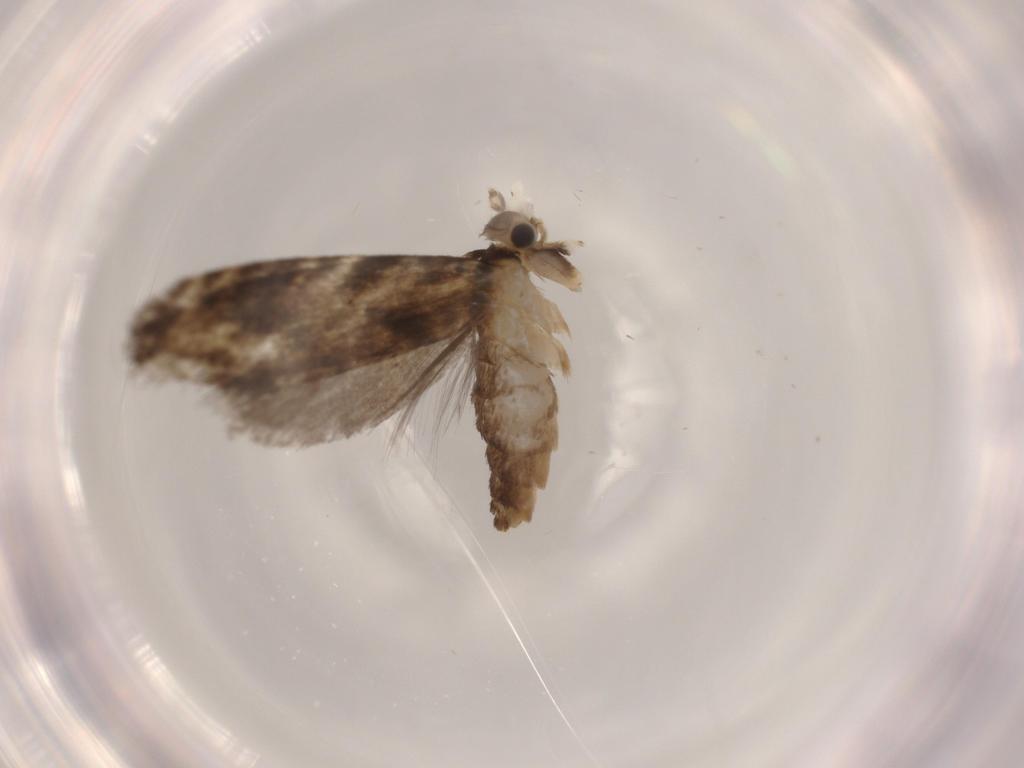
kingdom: Animalia
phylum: Arthropoda
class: Insecta
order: Lepidoptera
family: Tineidae
